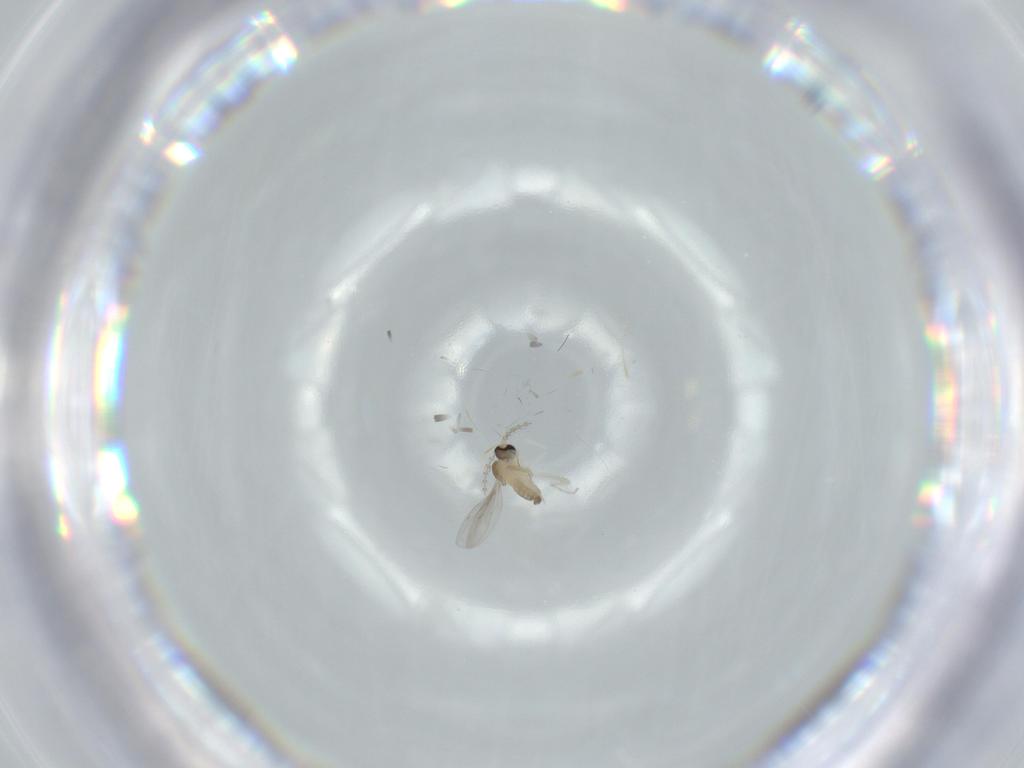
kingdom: Animalia
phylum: Arthropoda
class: Insecta
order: Diptera
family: Cecidomyiidae
